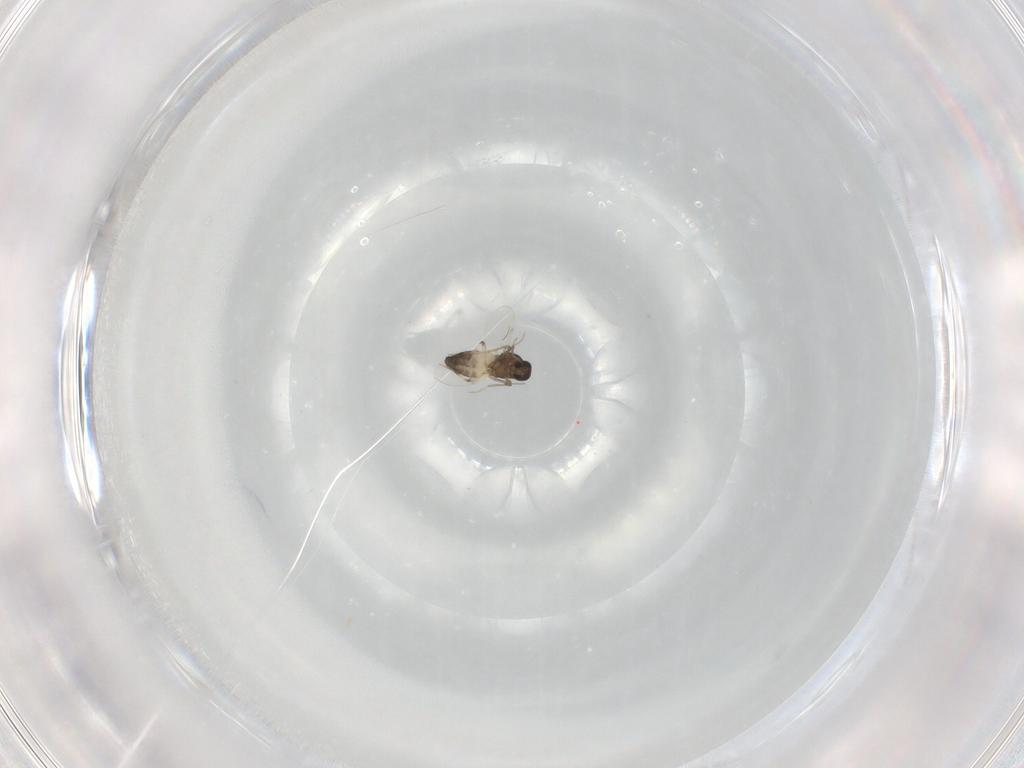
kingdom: Animalia
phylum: Arthropoda
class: Insecta
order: Diptera
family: Ceratopogonidae
